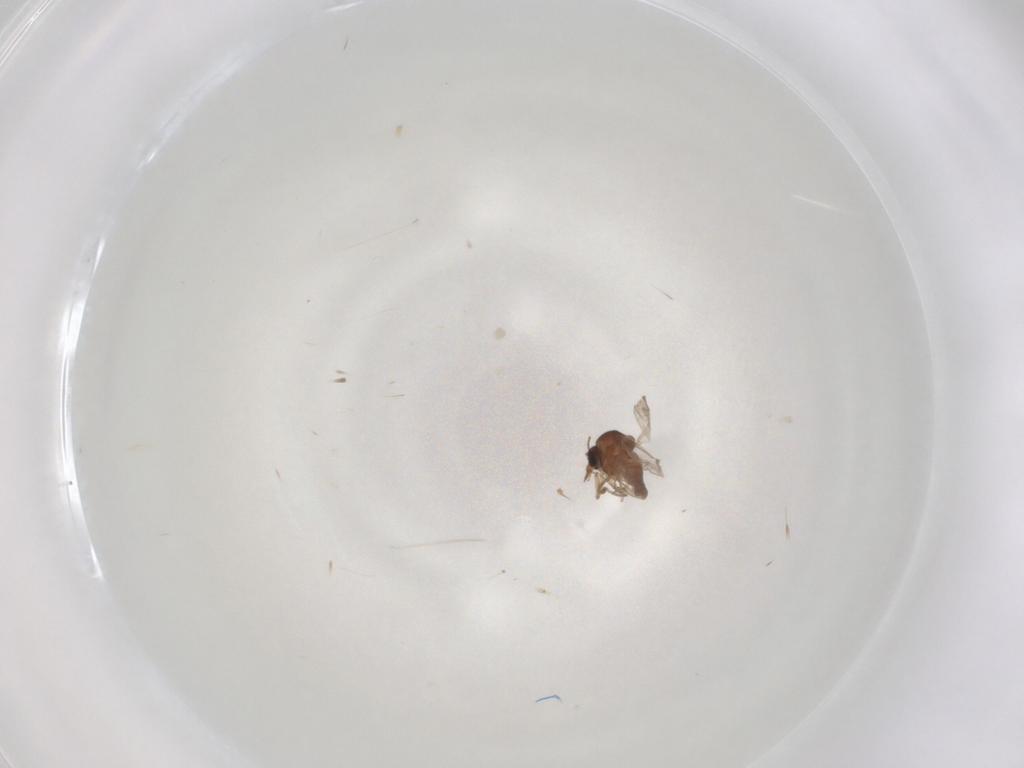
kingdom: Animalia
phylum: Arthropoda
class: Insecta
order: Diptera
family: Ceratopogonidae
